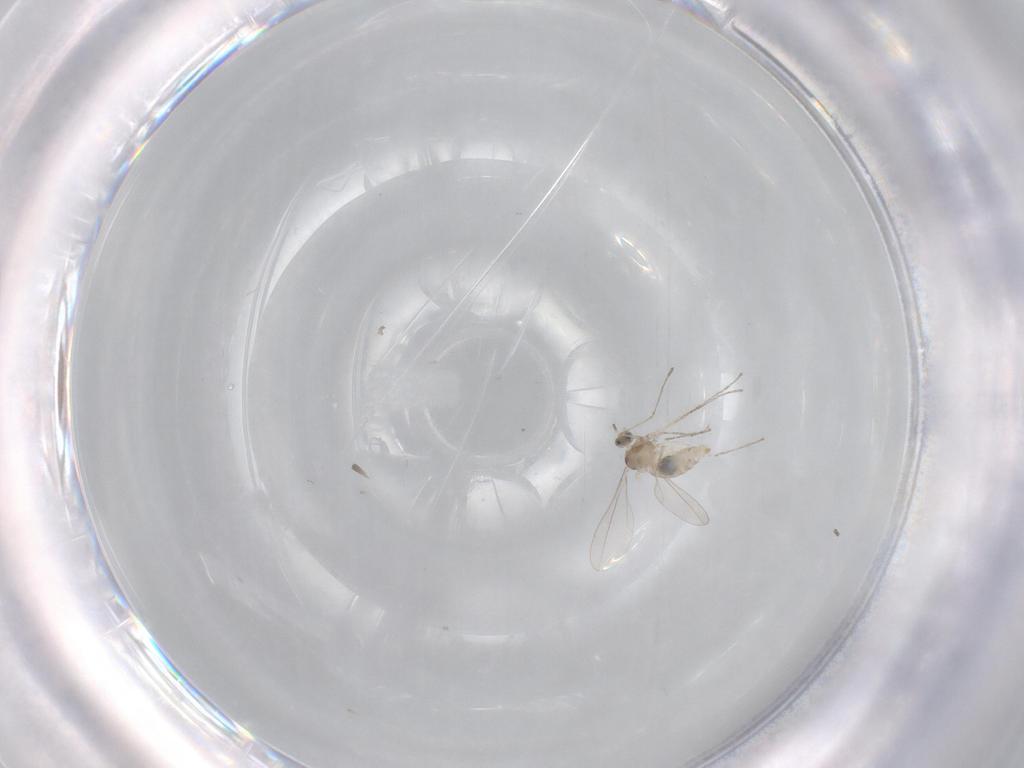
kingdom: Animalia
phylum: Arthropoda
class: Insecta
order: Diptera
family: Cecidomyiidae
